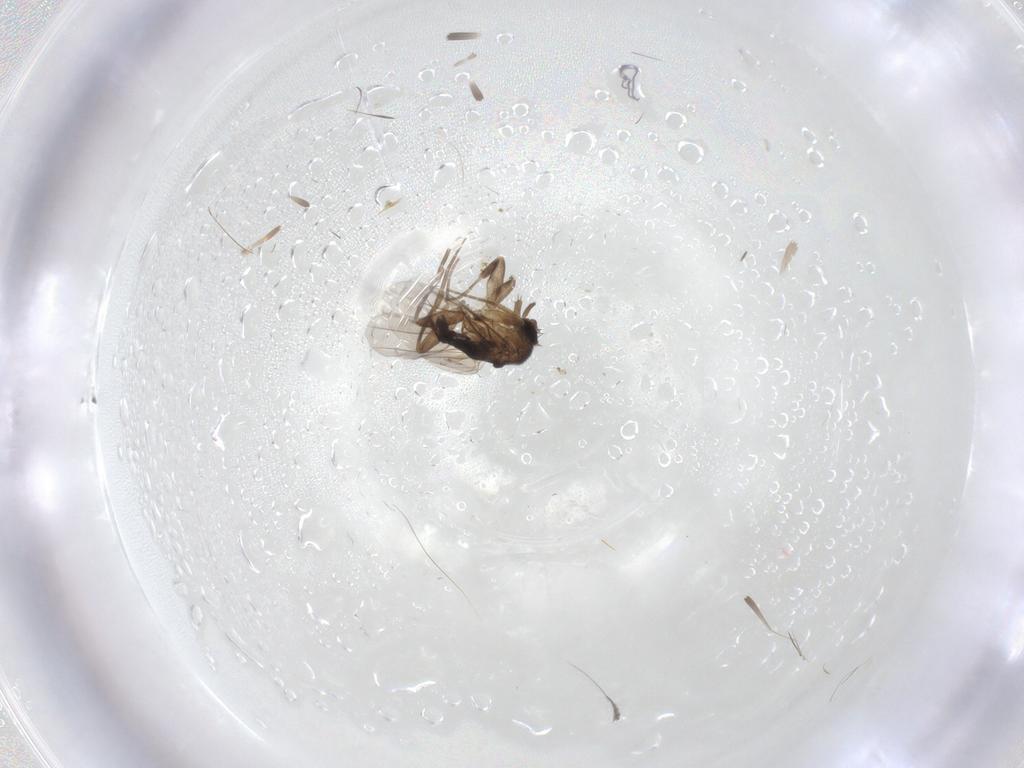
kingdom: Animalia
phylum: Arthropoda
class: Insecta
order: Diptera
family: Phoridae
